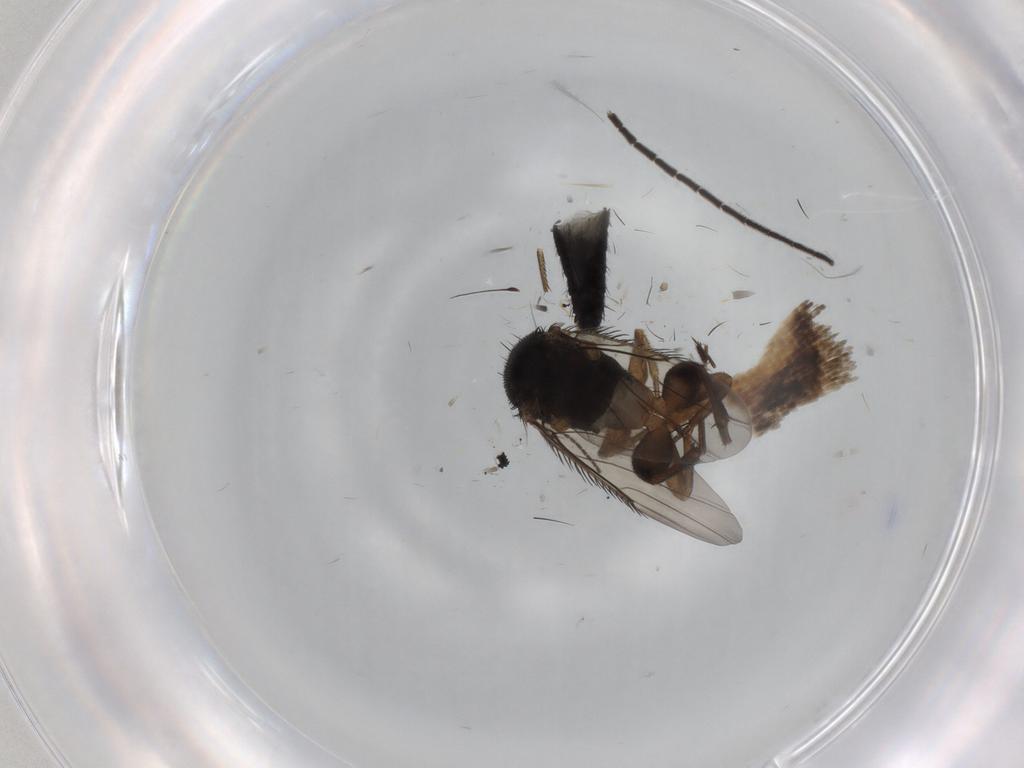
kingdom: Animalia
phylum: Arthropoda
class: Insecta
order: Diptera
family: Phoridae
